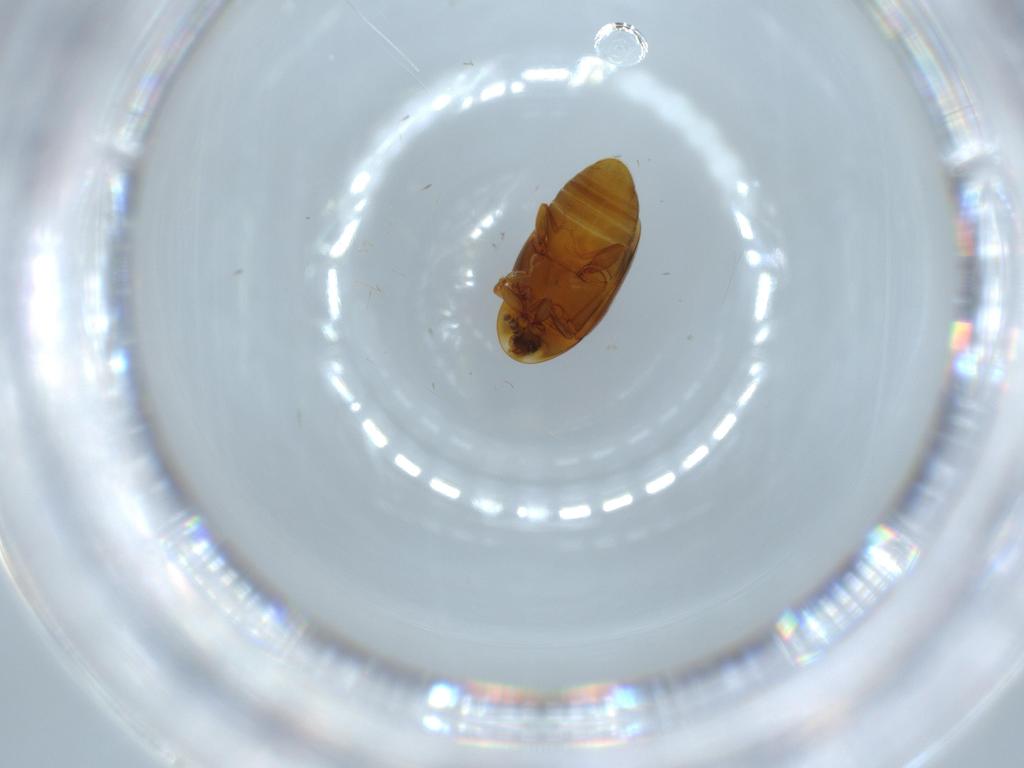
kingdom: Animalia
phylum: Arthropoda
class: Insecta
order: Coleoptera
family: Corylophidae
